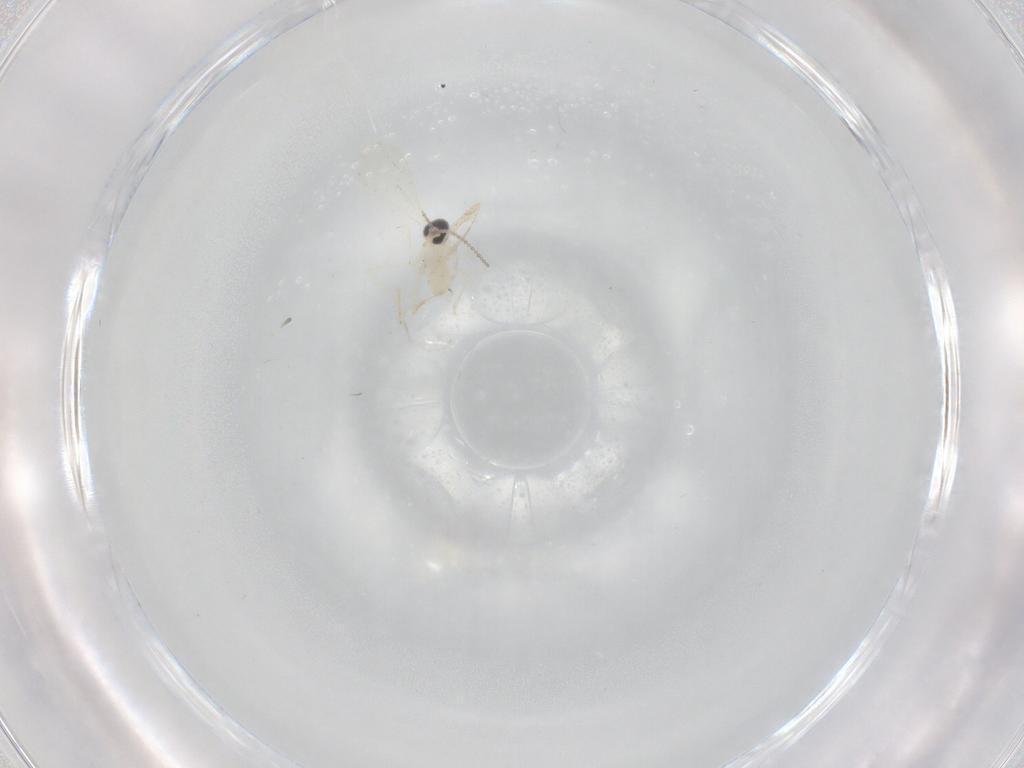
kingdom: Animalia
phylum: Arthropoda
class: Insecta
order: Diptera
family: Cecidomyiidae
